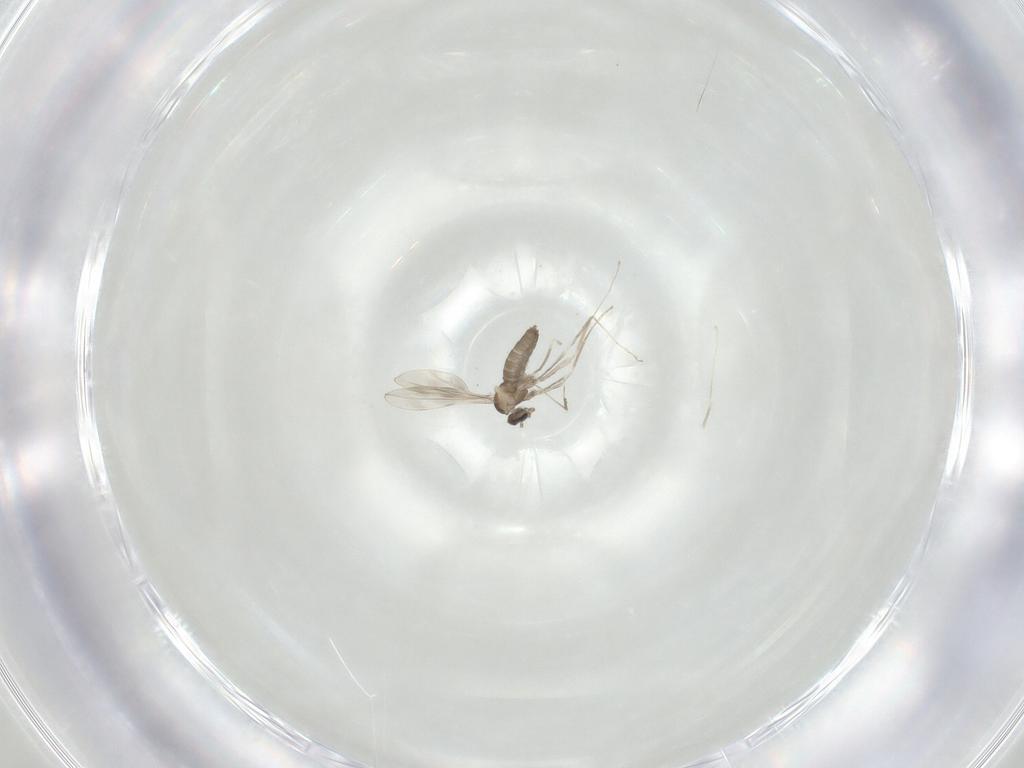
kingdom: Animalia
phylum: Arthropoda
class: Insecta
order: Diptera
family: Cecidomyiidae
